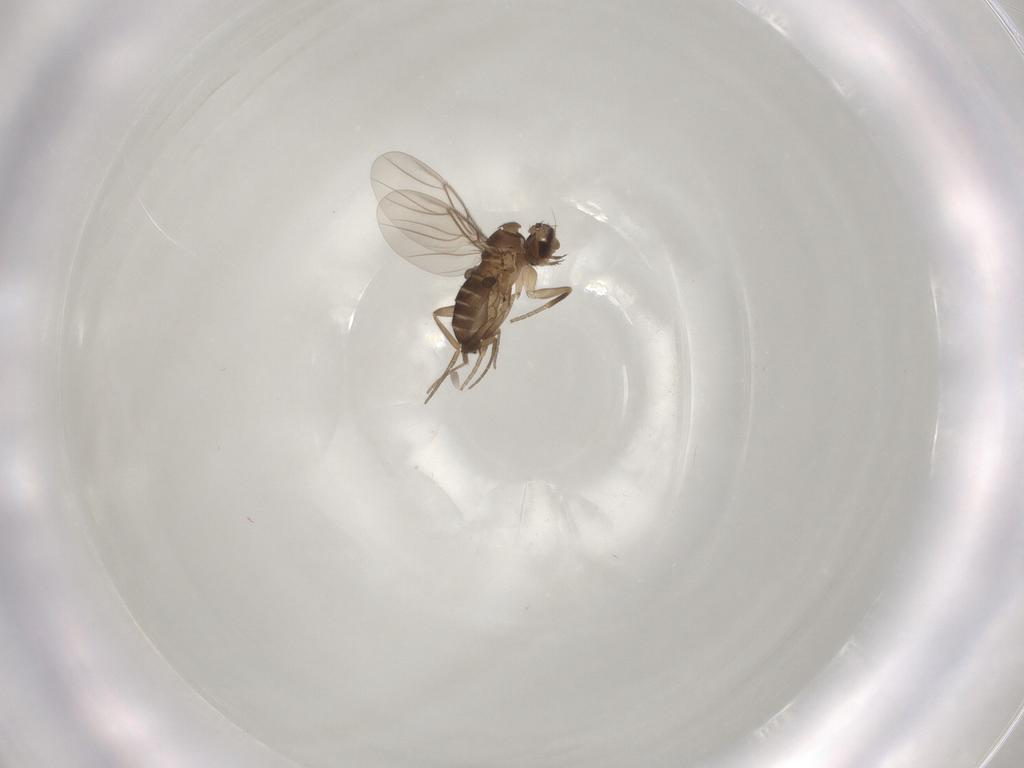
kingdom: Animalia
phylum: Arthropoda
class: Insecta
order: Diptera
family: Phoridae
